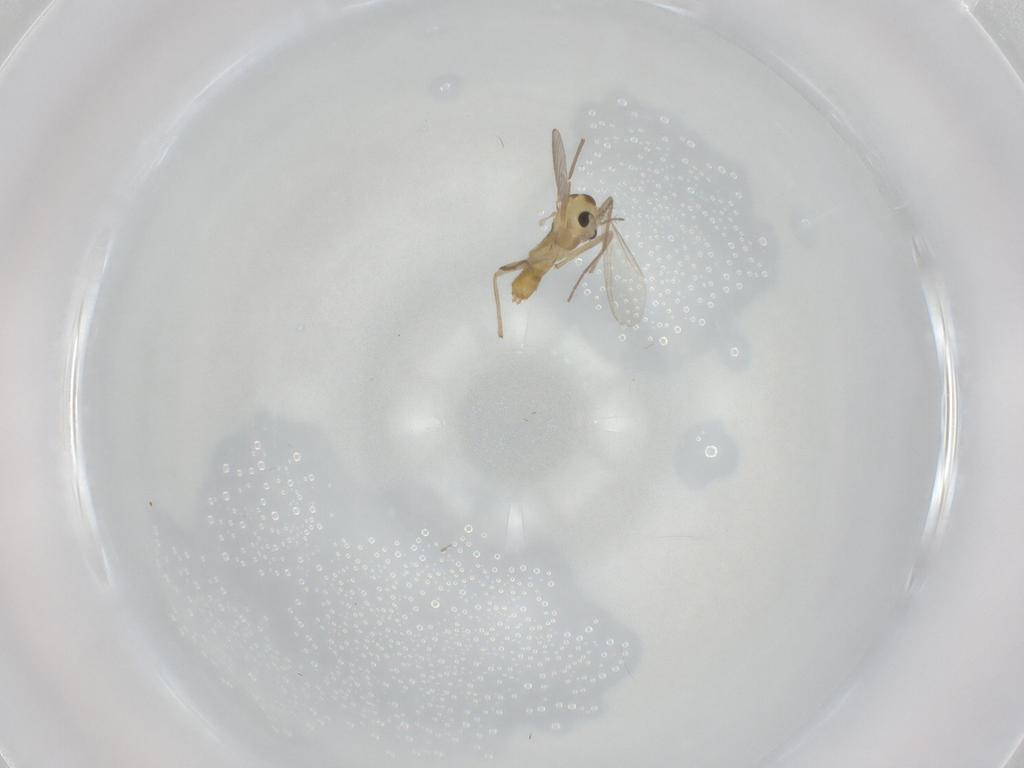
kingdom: Animalia
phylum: Arthropoda
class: Insecta
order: Diptera
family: Chironomidae
